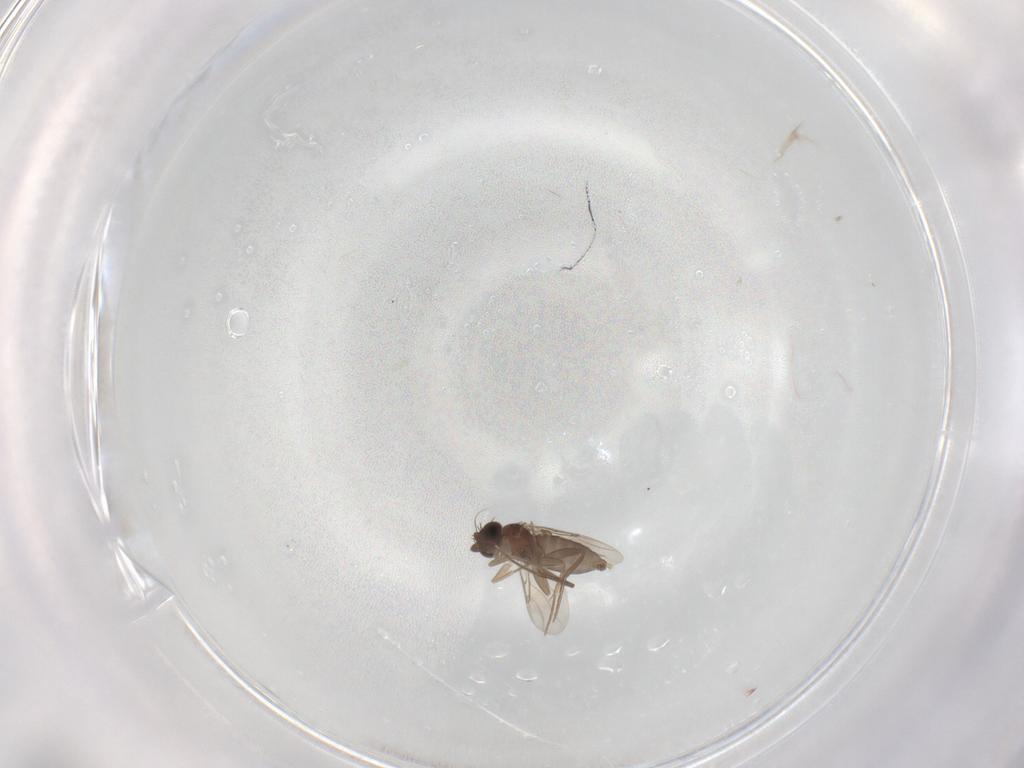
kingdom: Animalia
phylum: Arthropoda
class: Insecta
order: Diptera
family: Phoridae
